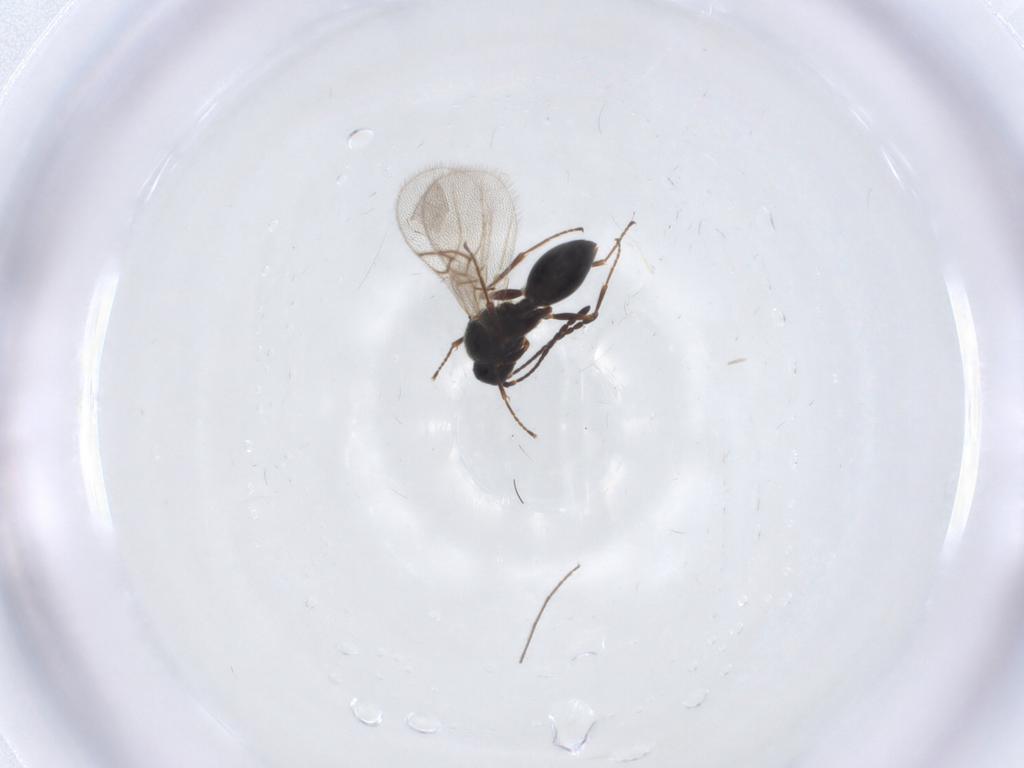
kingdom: Animalia
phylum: Arthropoda
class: Insecta
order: Hymenoptera
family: Figitidae
